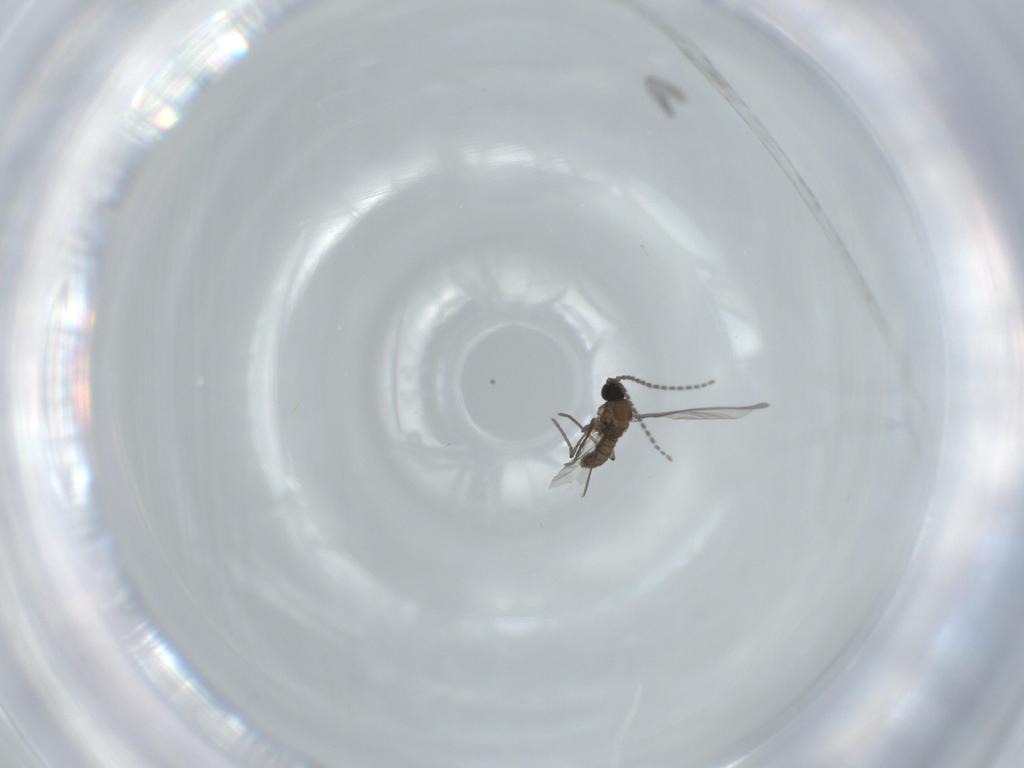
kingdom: Animalia
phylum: Arthropoda
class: Insecta
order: Diptera
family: Sciaridae
